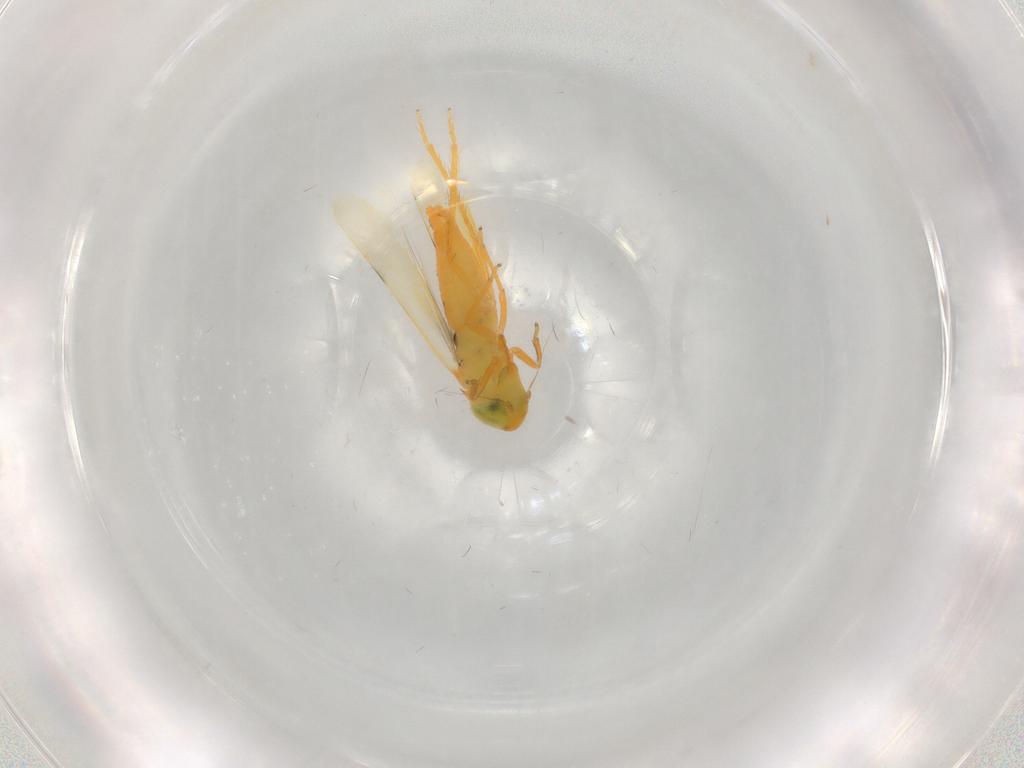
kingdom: Animalia
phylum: Arthropoda
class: Insecta
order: Hemiptera
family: Cicadellidae
